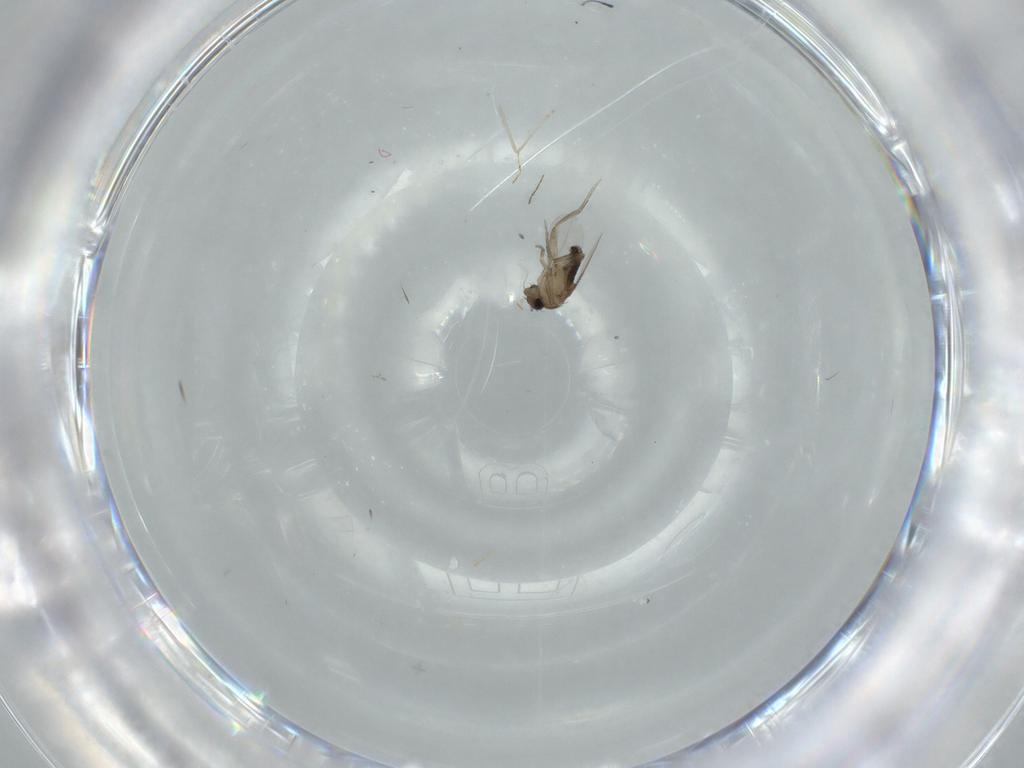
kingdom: Animalia
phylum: Arthropoda
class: Insecta
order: Diptera
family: Phoridae
